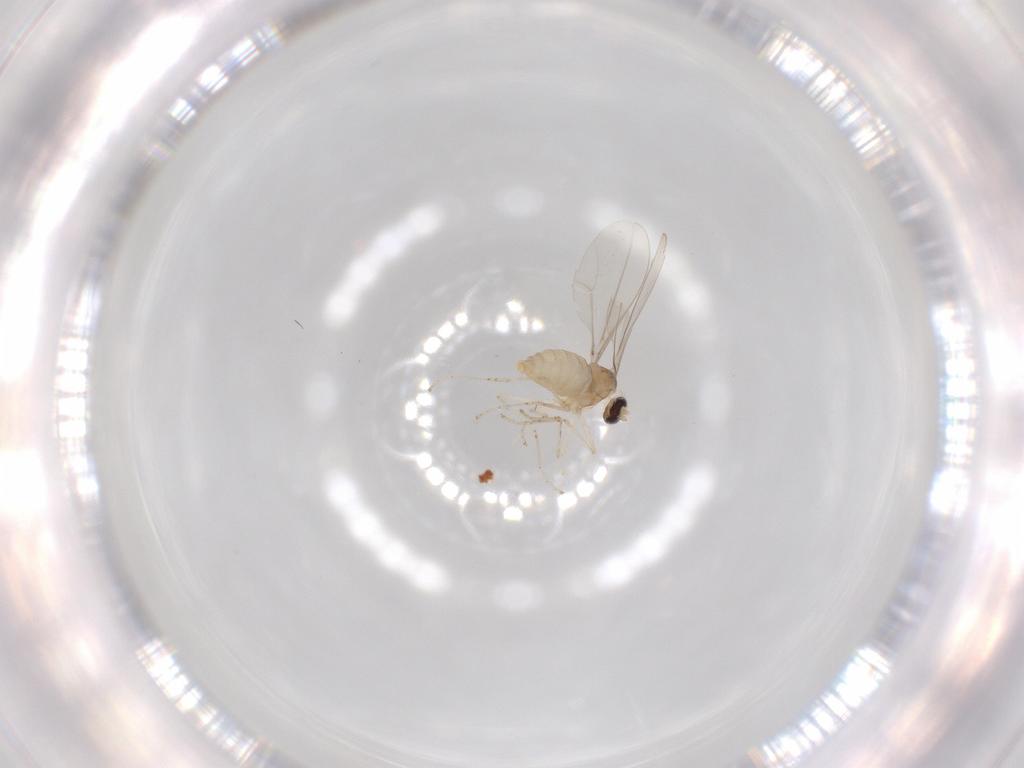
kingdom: Animalia
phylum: Arthropoda
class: Insecta
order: Diptera
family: Cecidomyiidae
